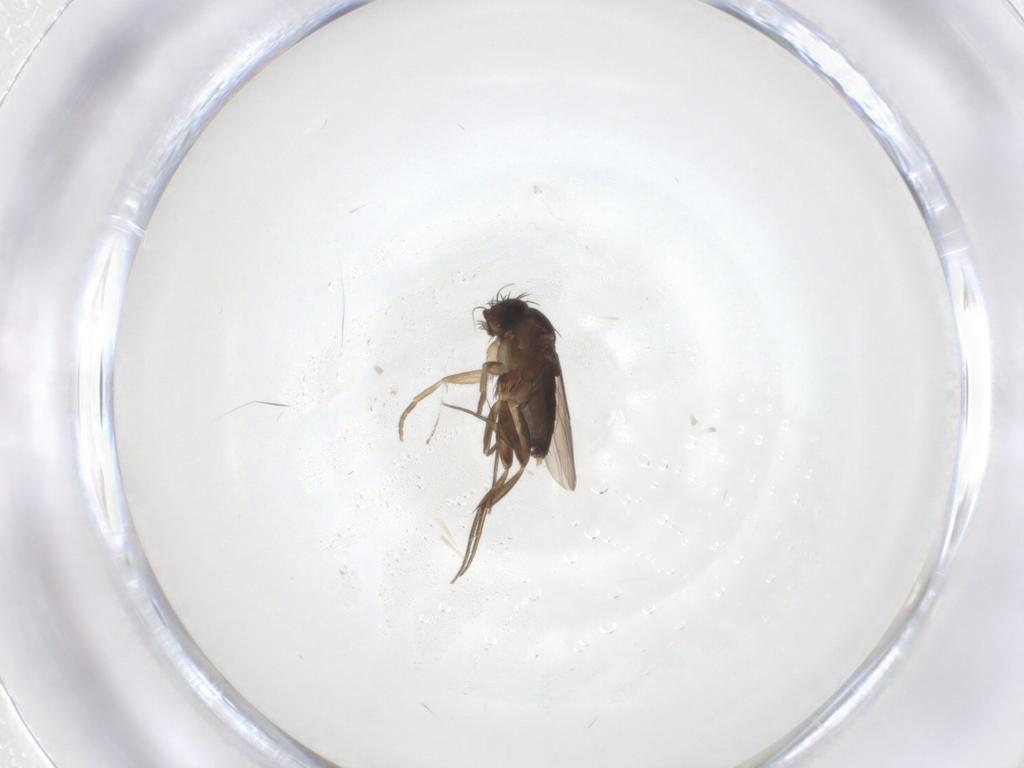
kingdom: Animalia
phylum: Arthropoda
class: Insecta
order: Diptera
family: Phoridae
